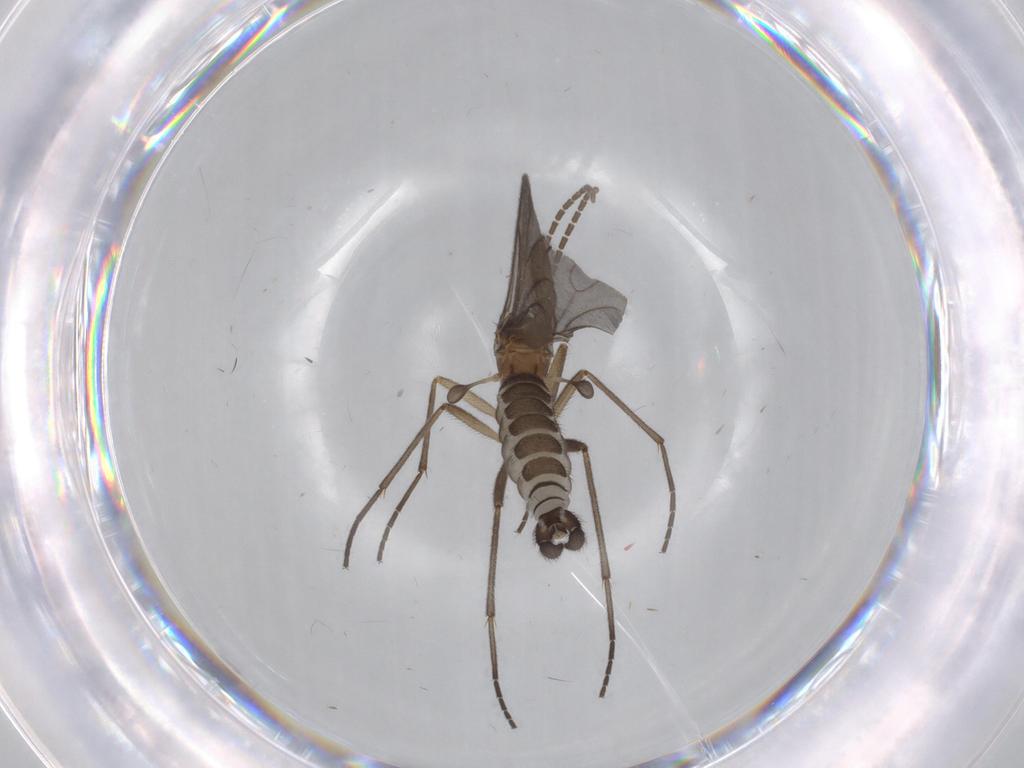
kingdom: Animalia
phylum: Arthropoda
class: Insecta
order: Diptera
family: Sciaridae
